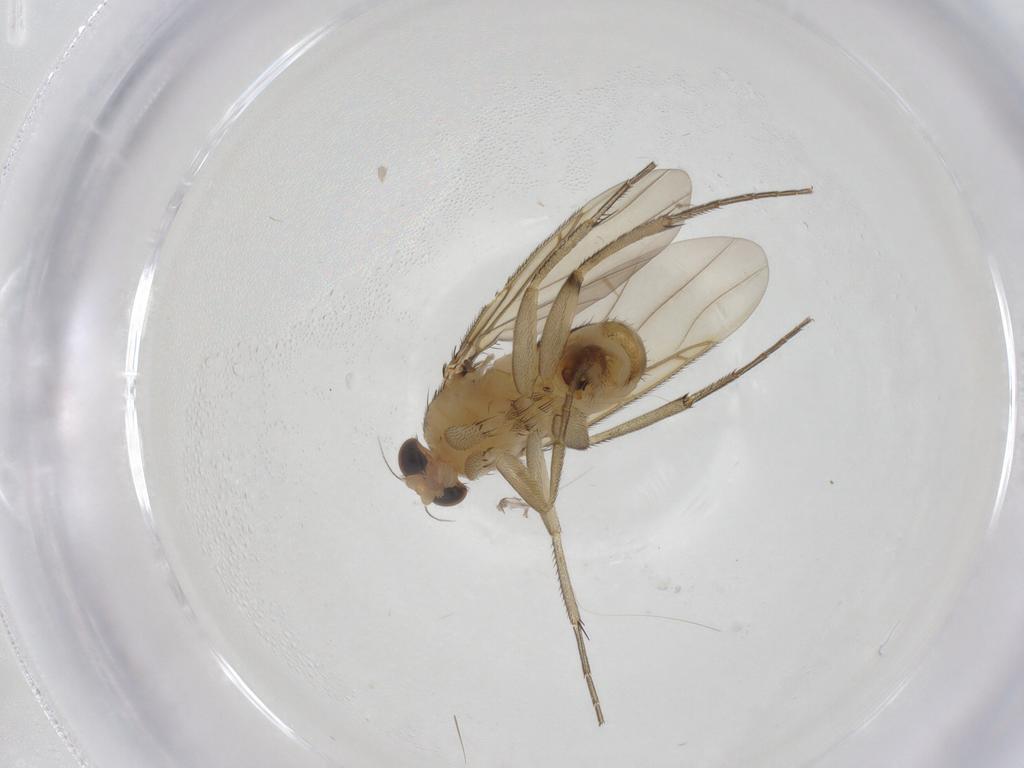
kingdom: Animalia
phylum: Arthropoda
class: Insecta
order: Diptera
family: Phoridae
